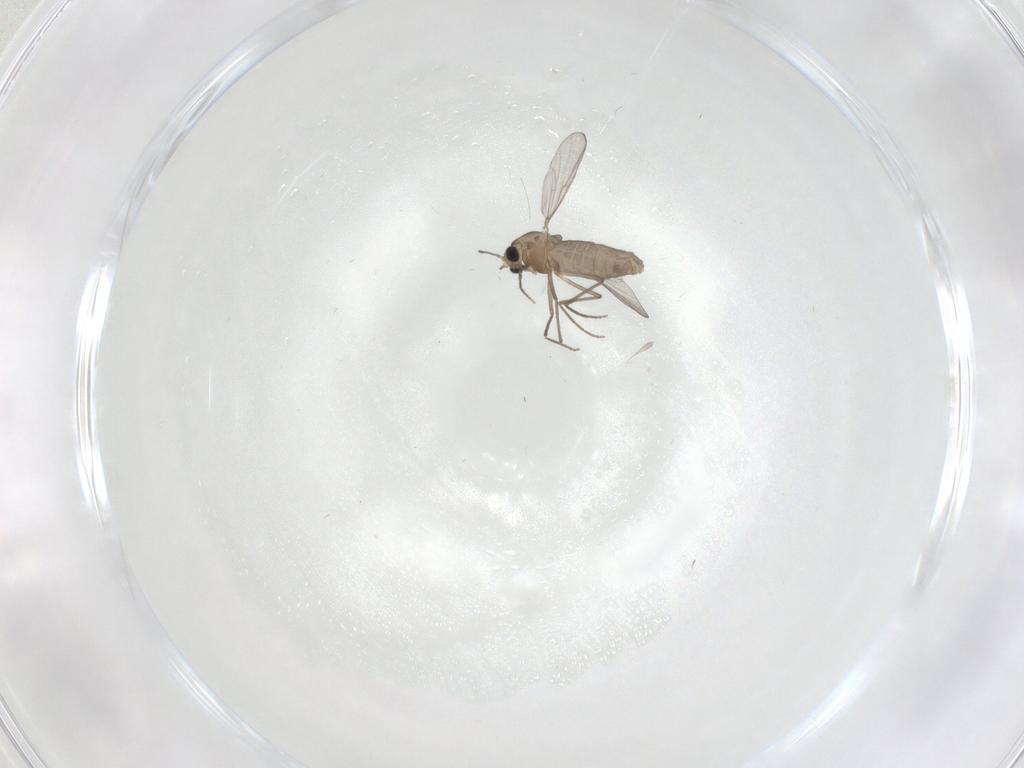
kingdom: Animalia
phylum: Arthropoda
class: Insecta
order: Diptera
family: Chironomidae
